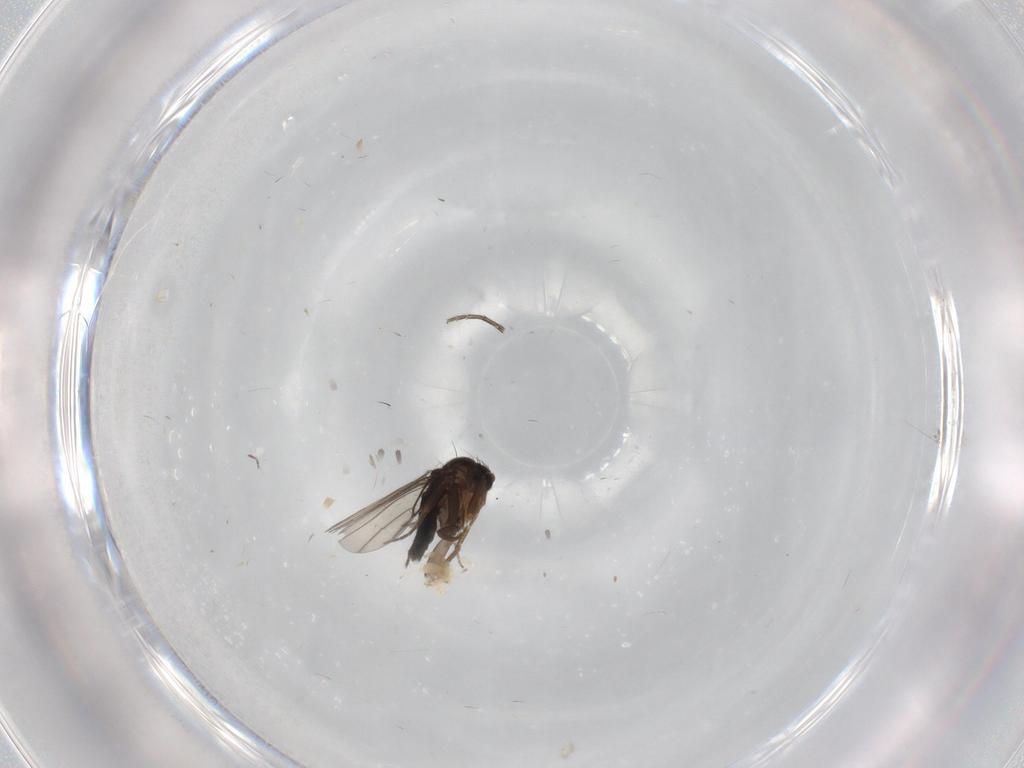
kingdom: Animalia
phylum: Arthropoda
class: Insecta
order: Diptera
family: Phoridae
